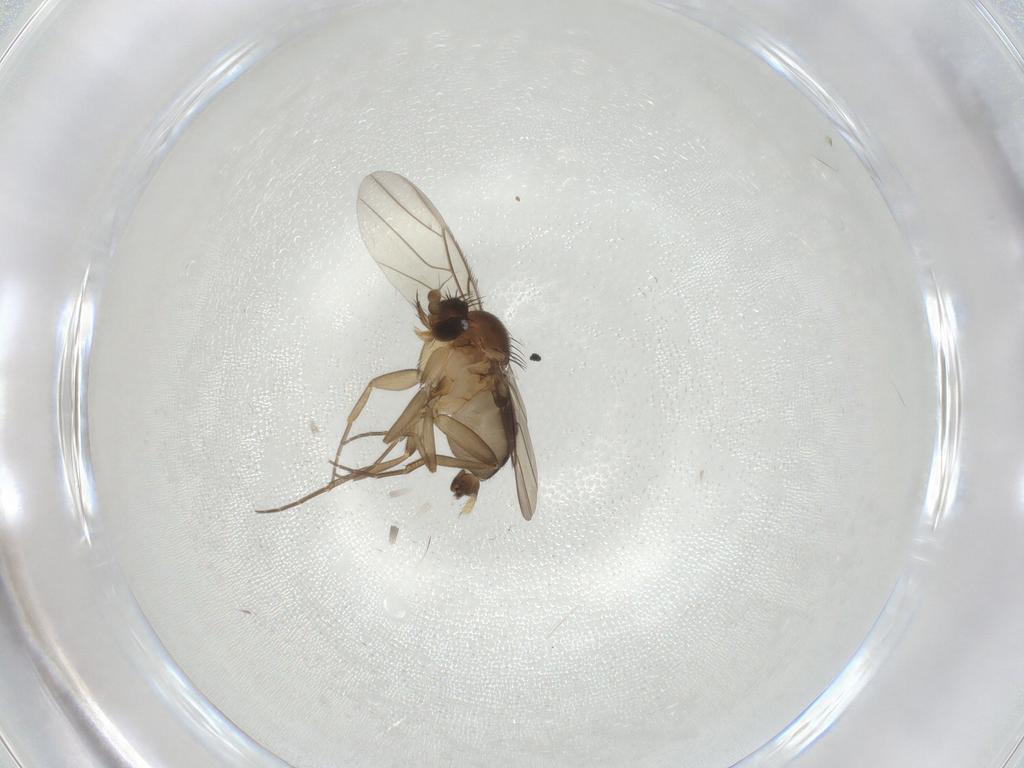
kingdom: Animalia
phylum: Arthropoda
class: Insecta
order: Diptera
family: Phoridae
